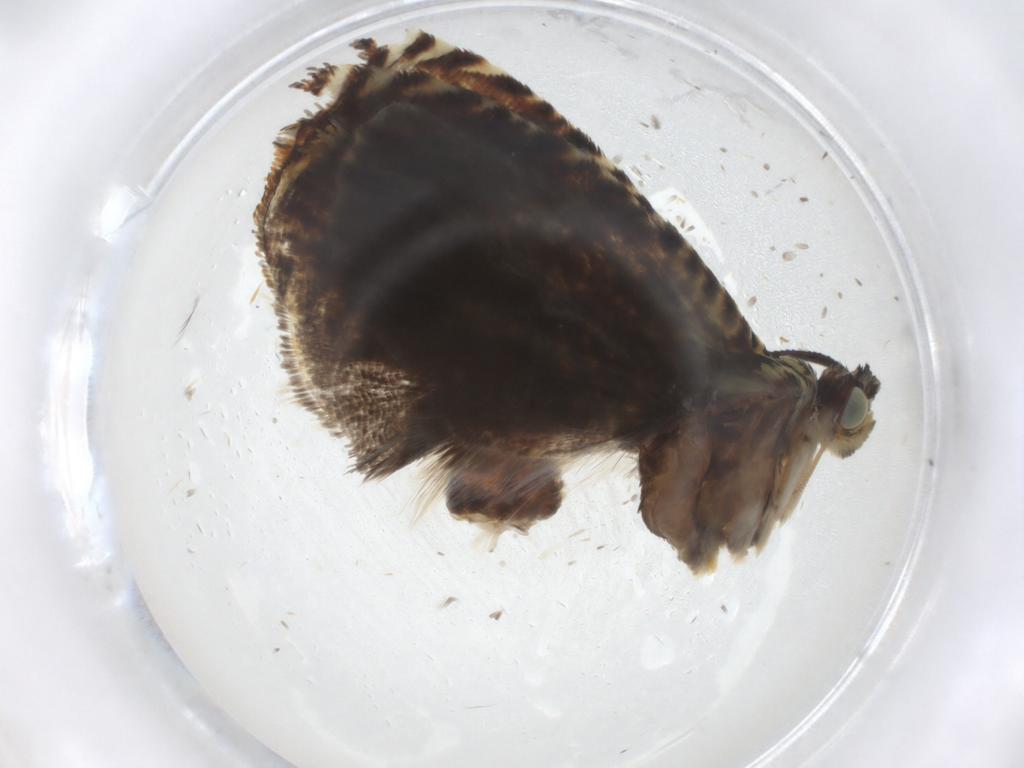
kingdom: Animalia
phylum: Arthropoda
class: Insecta
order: Lepidoptera
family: Tortricidae
